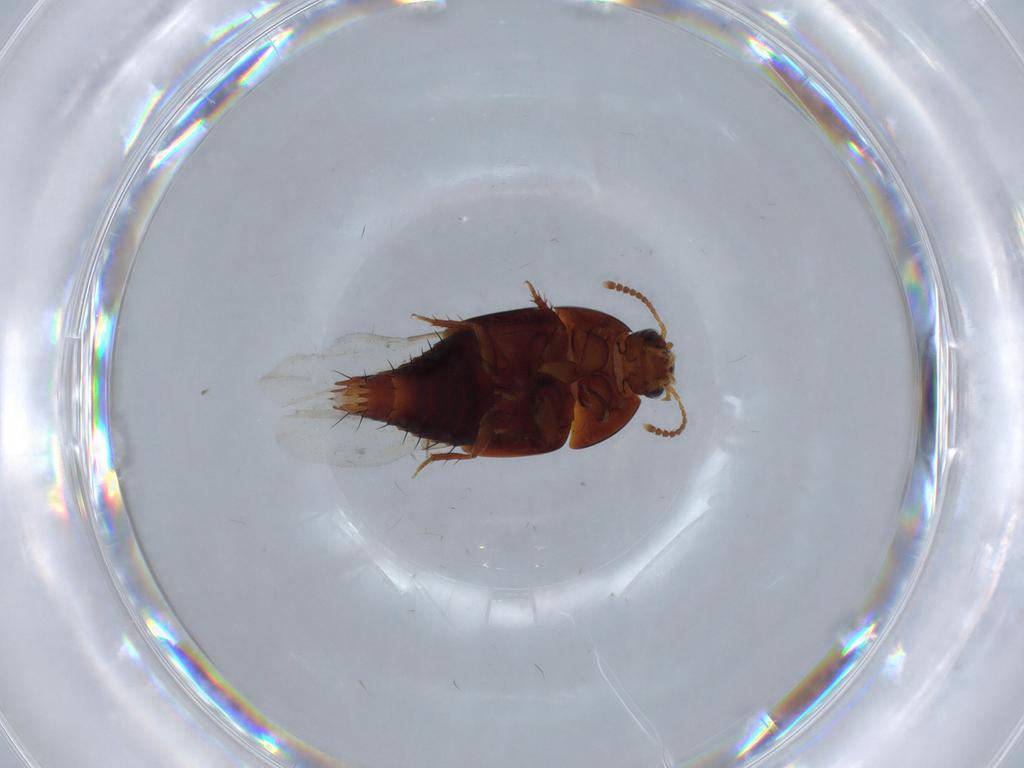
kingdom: Animalia
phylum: Arthropoda
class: Insecta
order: Coleoptera
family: Staphylinidae
